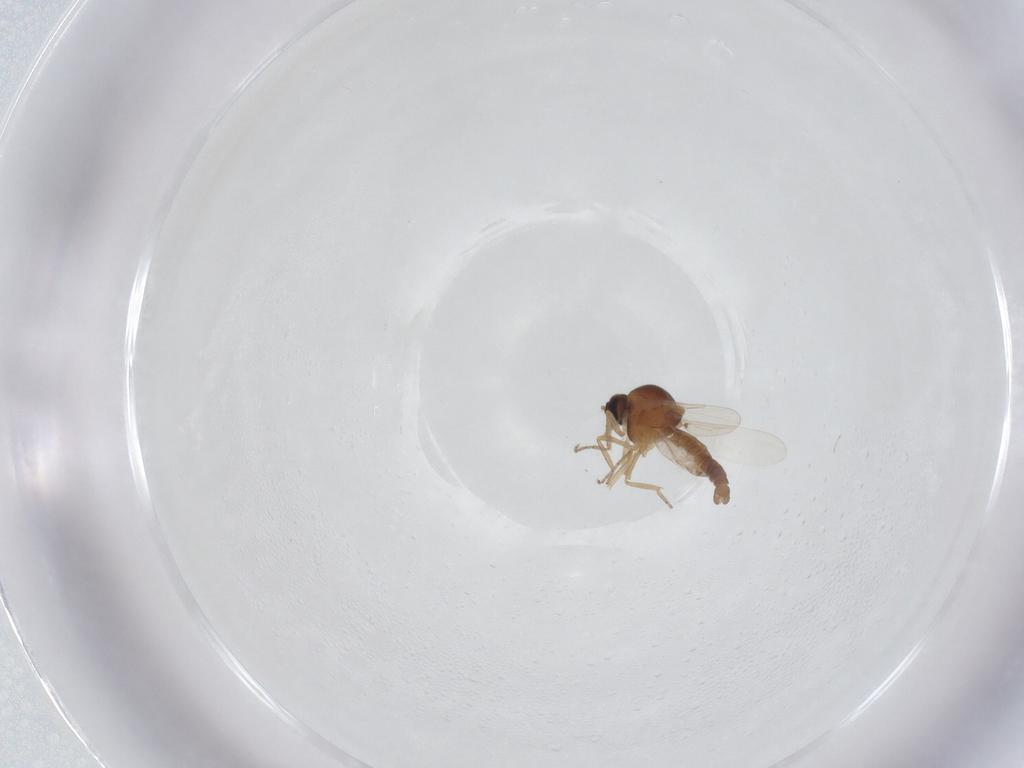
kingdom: Animalia
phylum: Arthropoda
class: Insecta
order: Diptera
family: Ceratopogonidae
